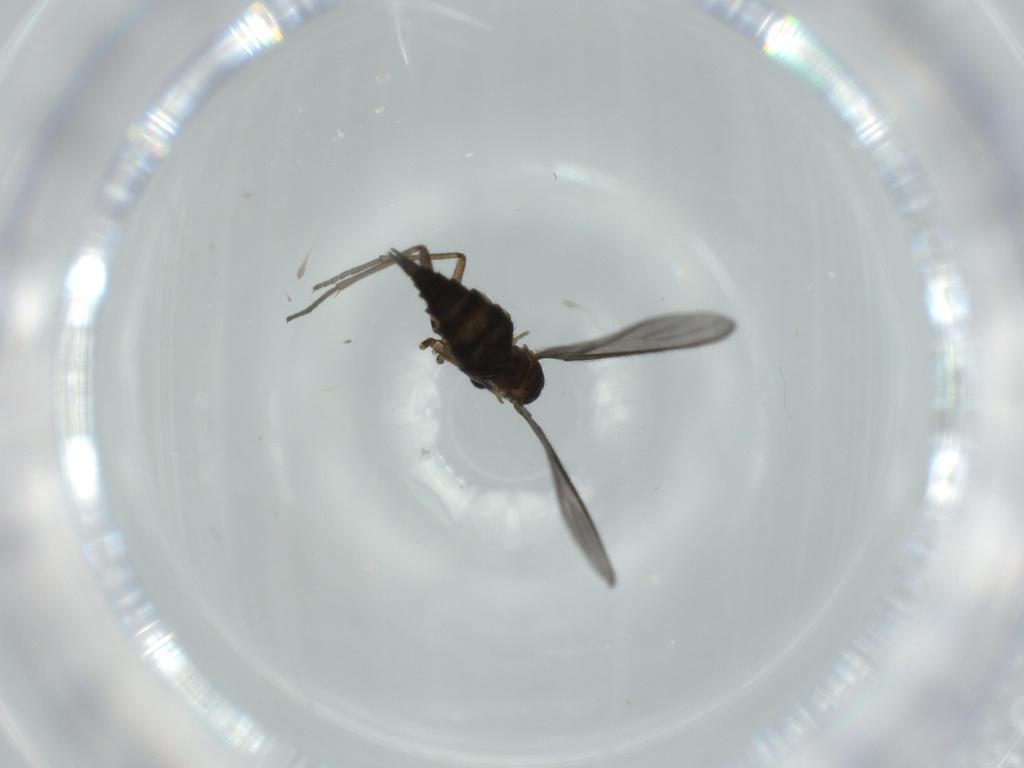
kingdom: Animalia
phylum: Arthropoda
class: Insecta
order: Diptera
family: Sciaridae
